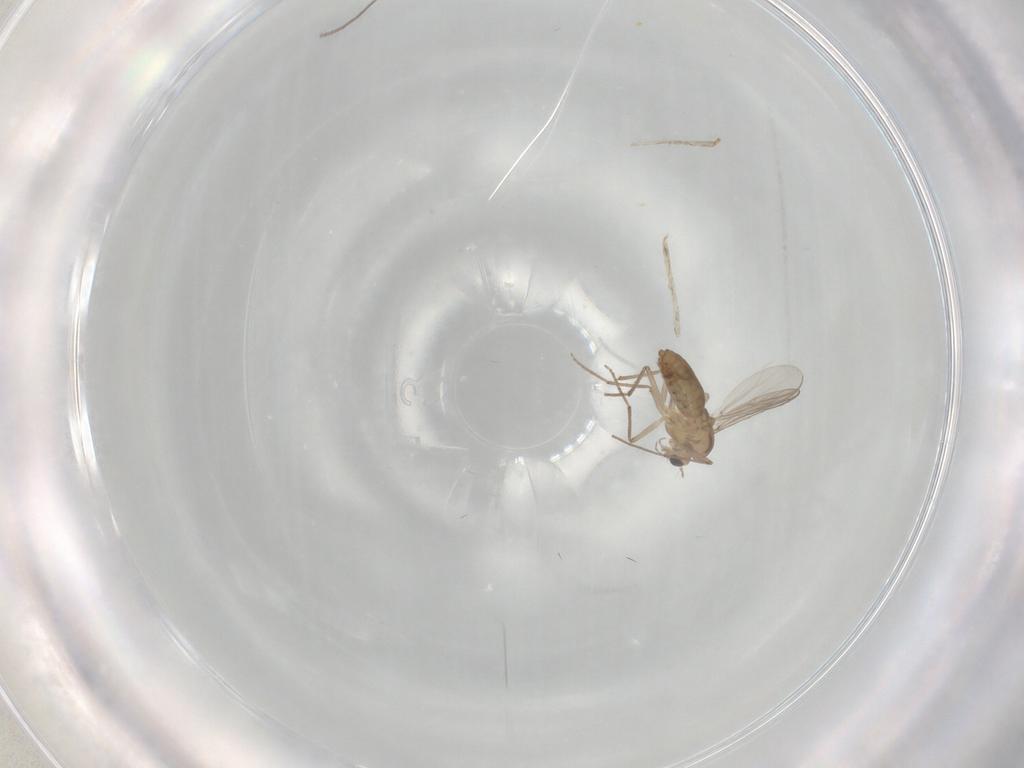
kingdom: Animalia
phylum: Arthropoda
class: Insecta
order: Diptera
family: Chironomidae
